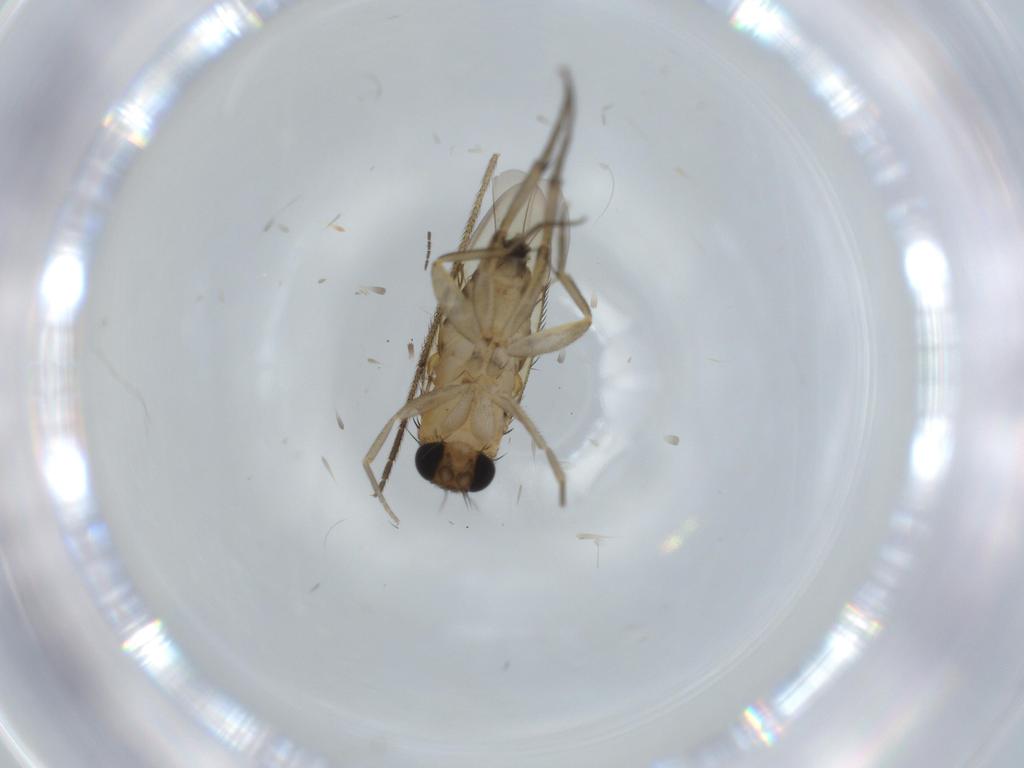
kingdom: Animalia
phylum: Arthropoda
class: Insecta
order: Diptera
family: Phoridae
